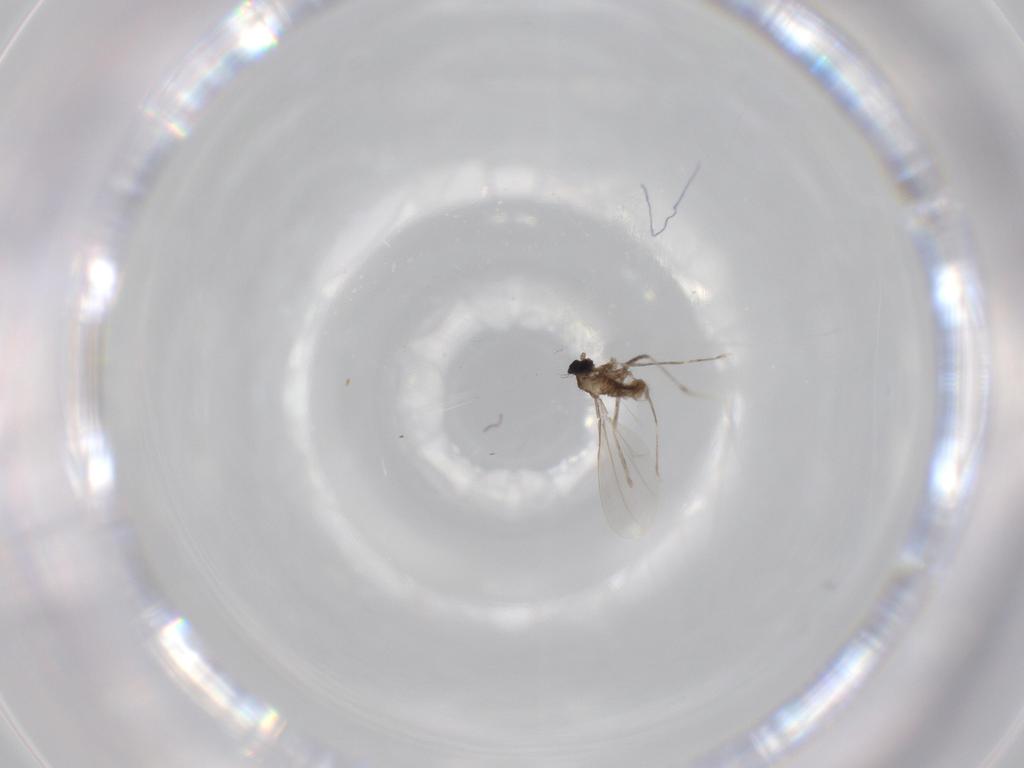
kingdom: Animalia
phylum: Arthropoda
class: Insecta
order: Diptera
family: Cecidomyiidae
